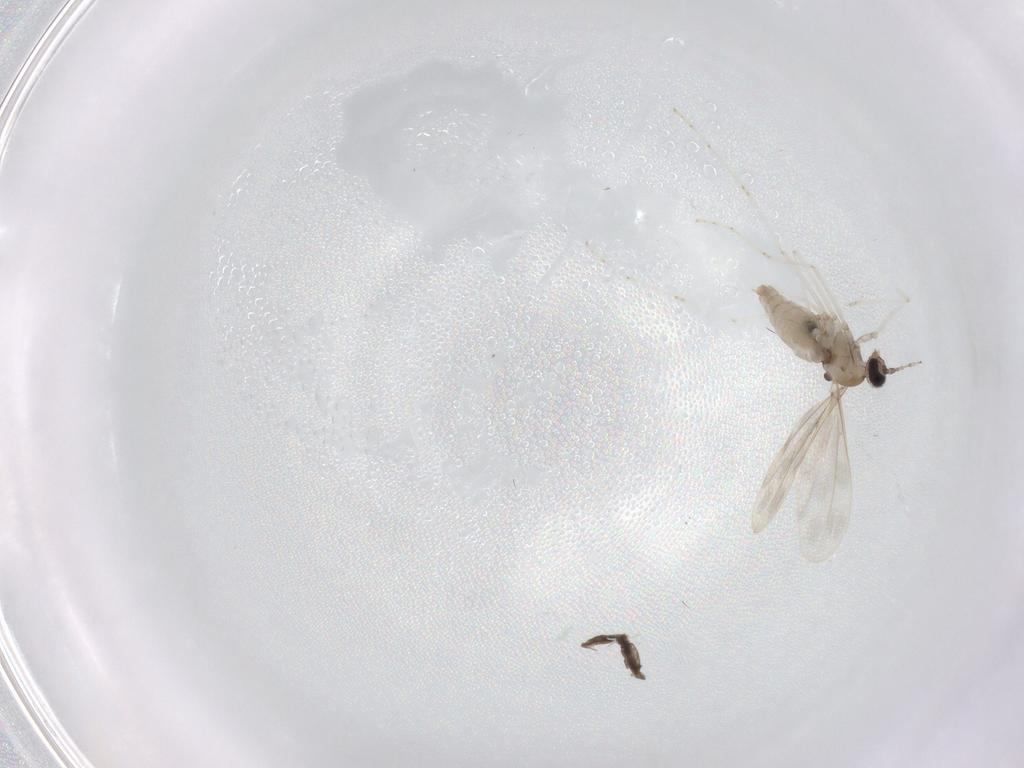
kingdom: Animalia
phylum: Arthropoda
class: Insecta
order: Diptera
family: Cecidomyiidae
